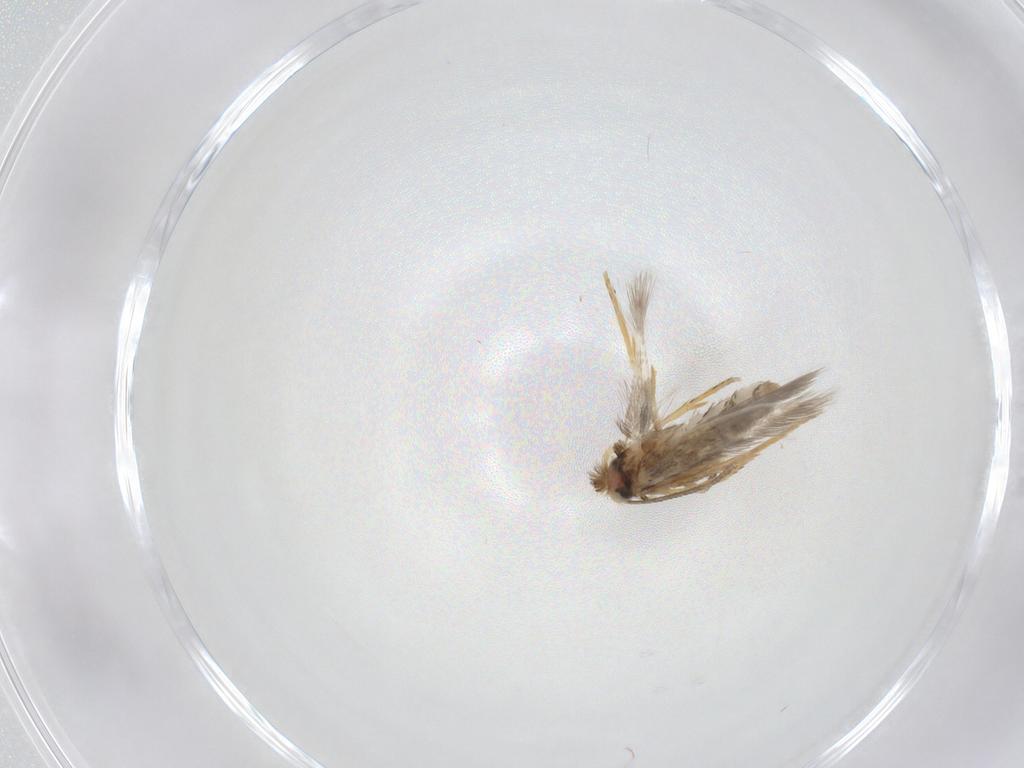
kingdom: Animalia
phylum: Arthropoda
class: Insecta
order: Lepidoptera
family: Nepticulidae
